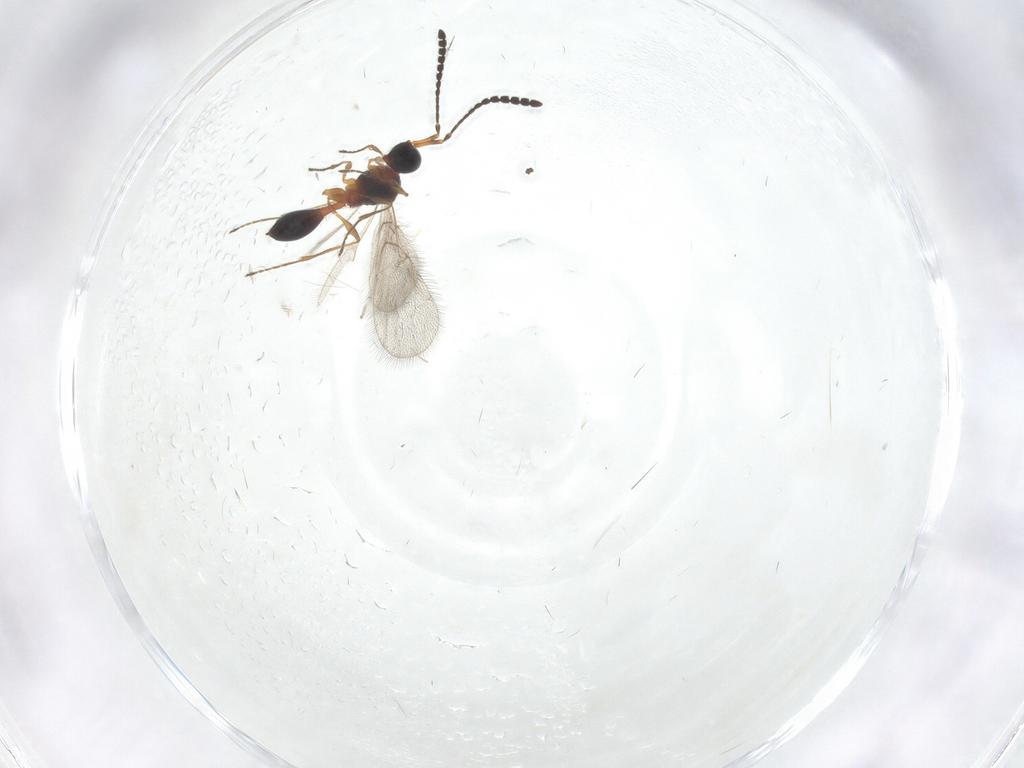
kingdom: Animalia
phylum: Arthropoda
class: Insecta
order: Hymenoptera
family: Diapriidae
